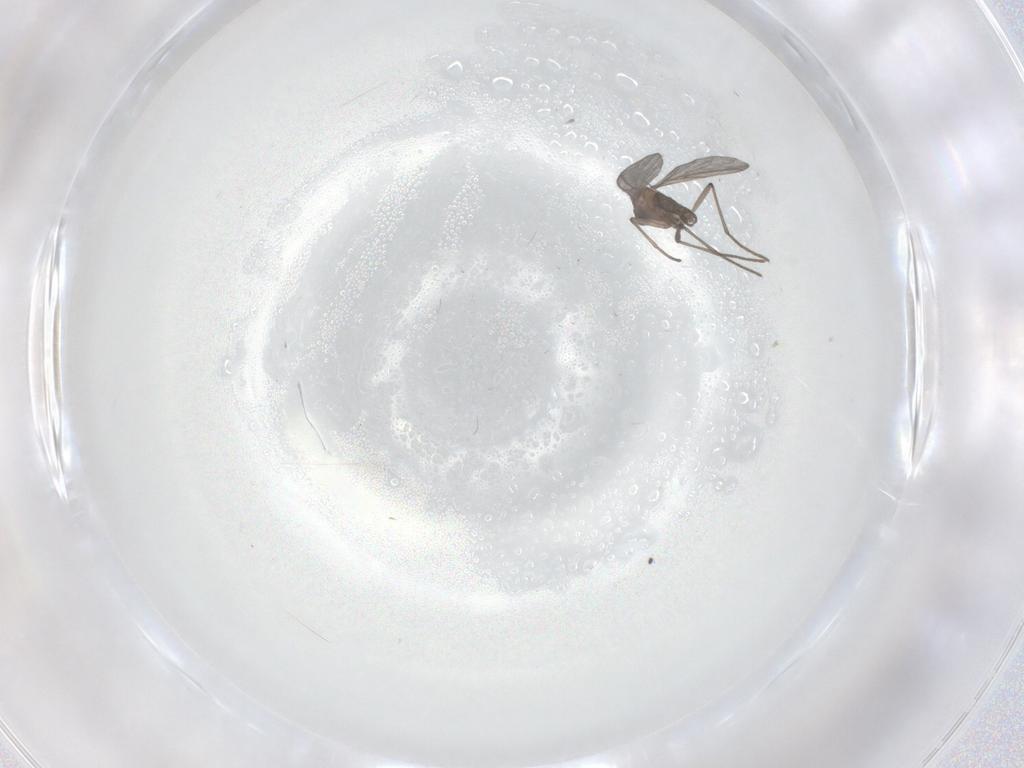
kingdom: Animalia
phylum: Arthropoda
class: Insecta
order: Diptera
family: Sciaridae
